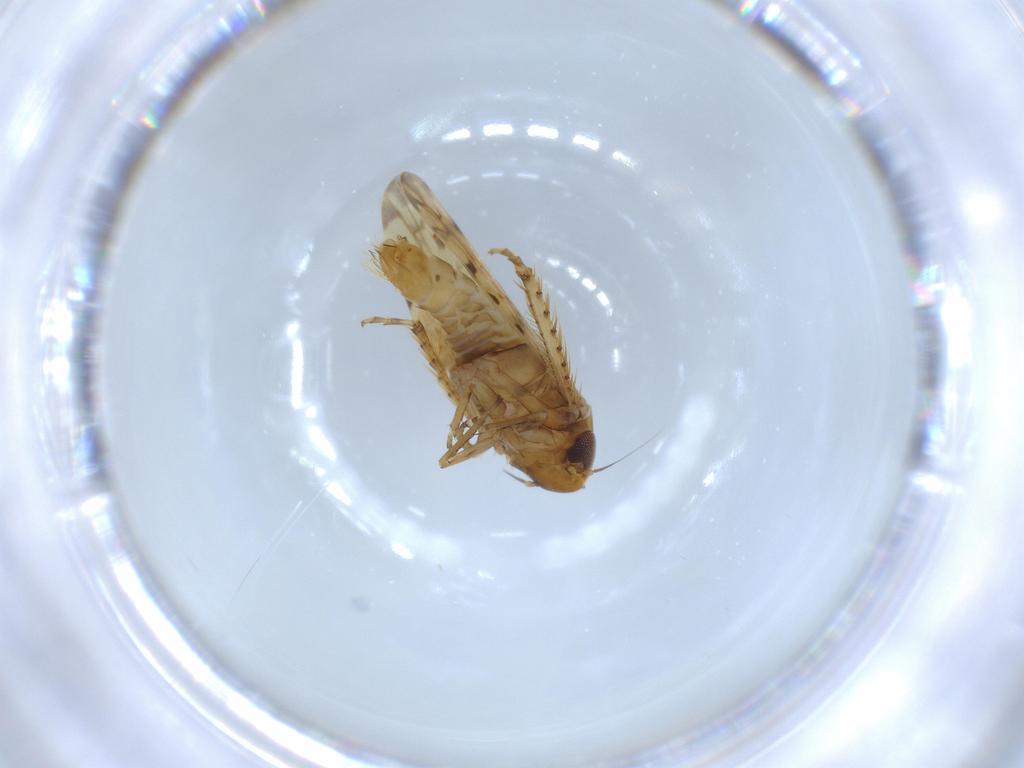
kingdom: Animalia
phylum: Arthropoda
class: Insecta
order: Hemiptera
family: Cicadellidae
